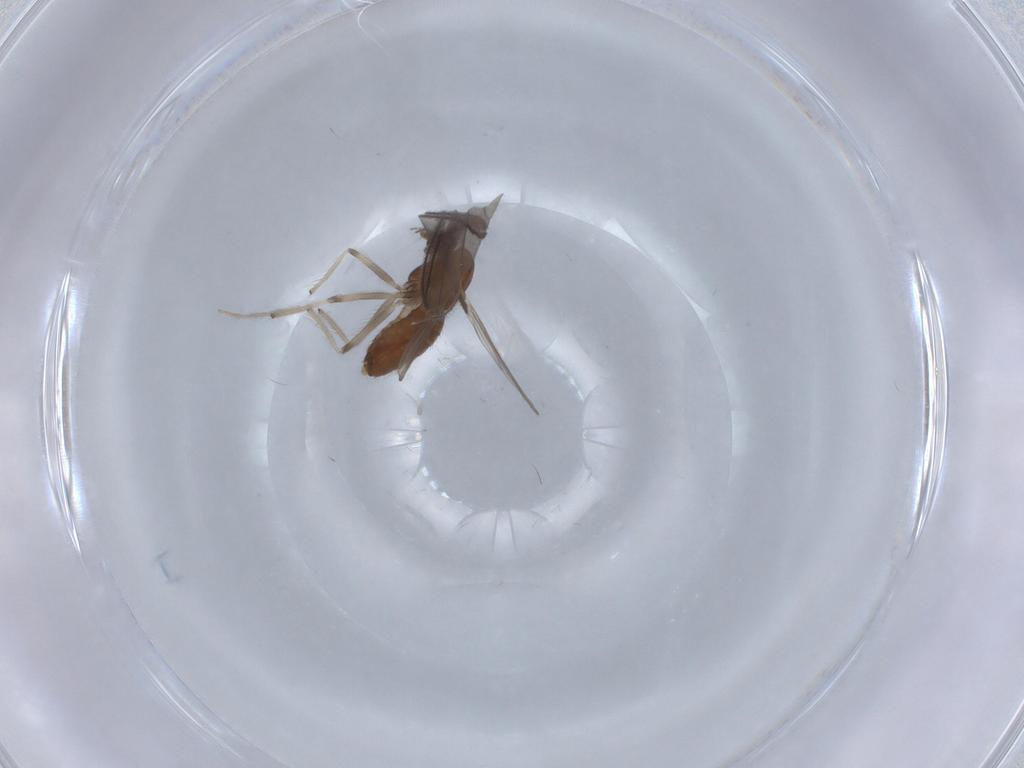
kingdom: Animalia
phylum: Arthropoda
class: Insecta
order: Diptera
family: Chironomidae
